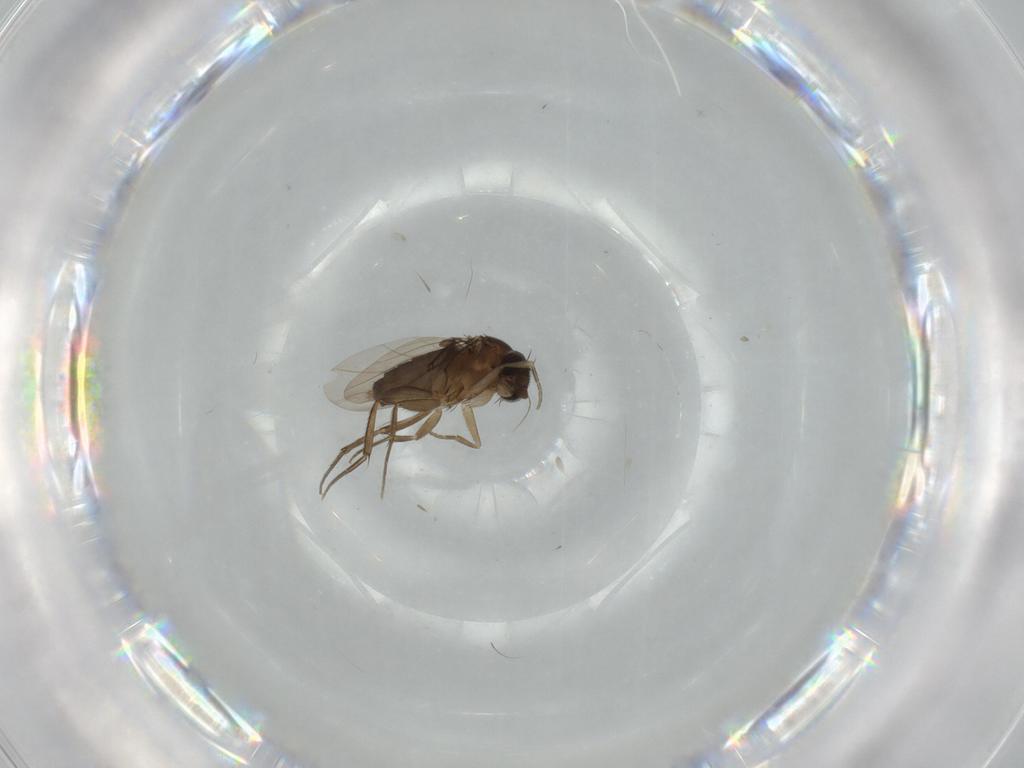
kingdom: Animalia
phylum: Arthropoda
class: Insecta
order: Diptera
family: Phoridae
